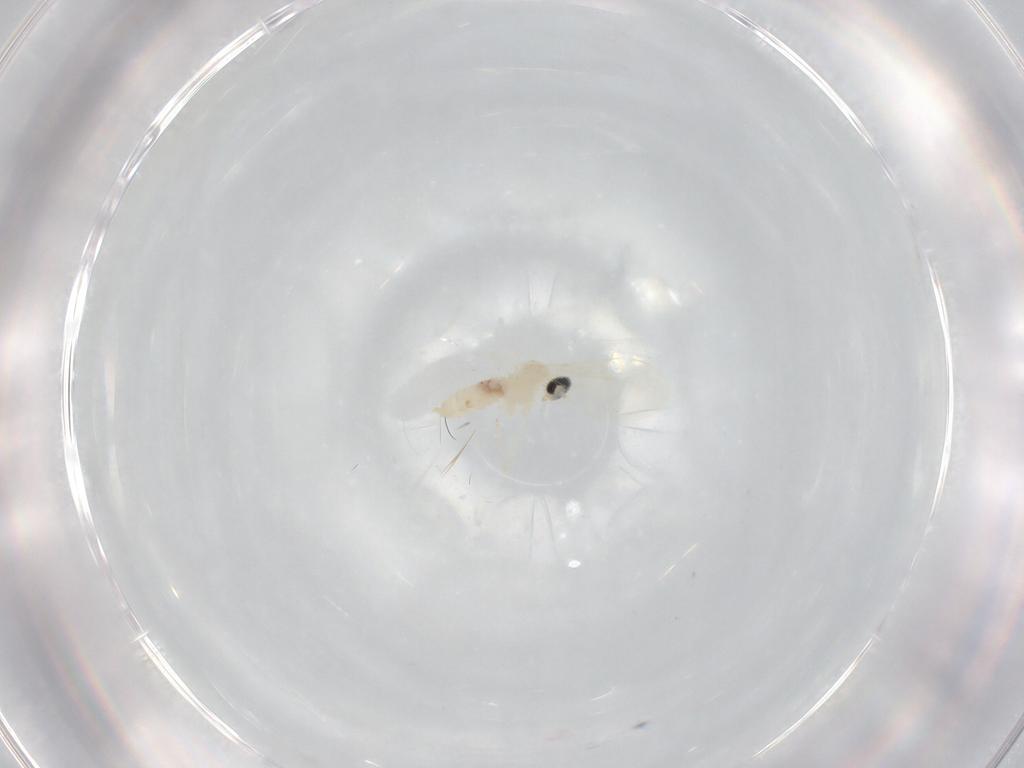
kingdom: Animalia
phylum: Arthropoda
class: Insecta
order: Diptera
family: Cecidomyiidae
